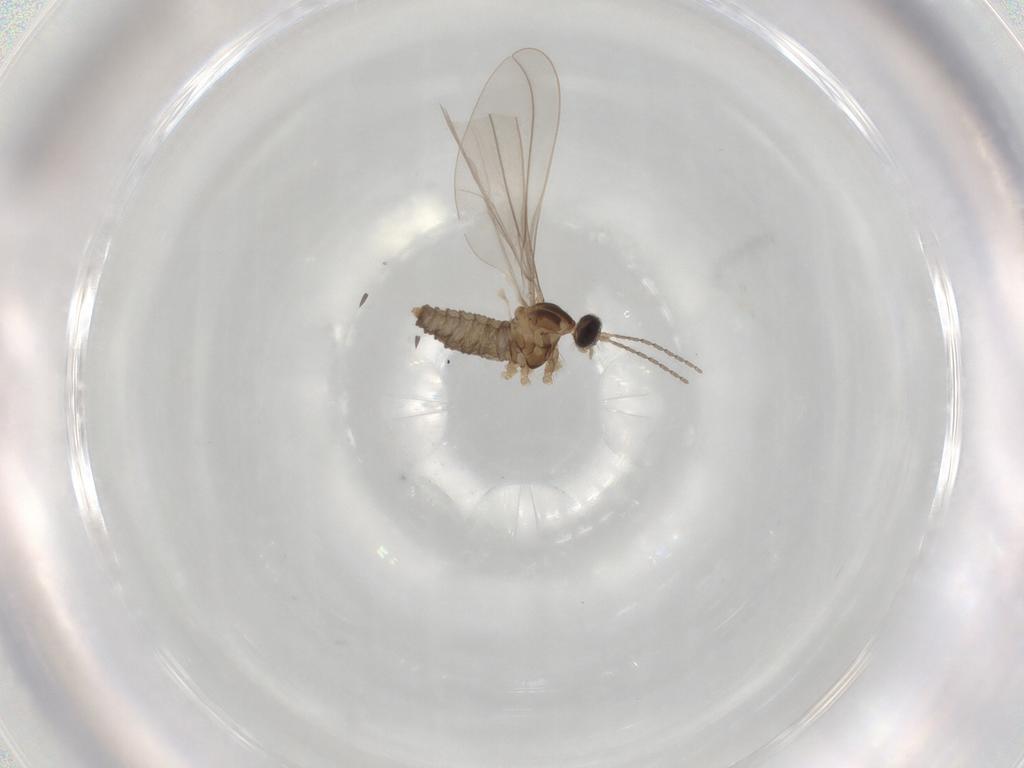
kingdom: Animalia
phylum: Arthropoda
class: Insecta
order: Diptera
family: Cecidomyiidae
